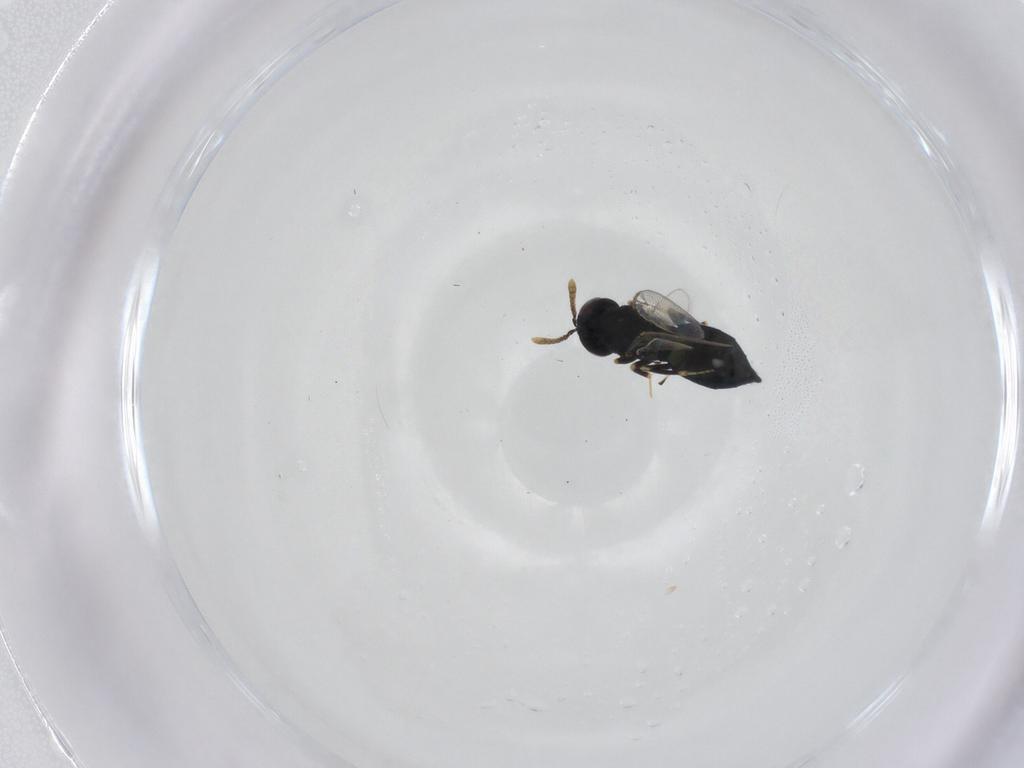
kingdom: Animalia
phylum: Arthropoda
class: Insecta
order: Hymenoptera
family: Pteromalidae
